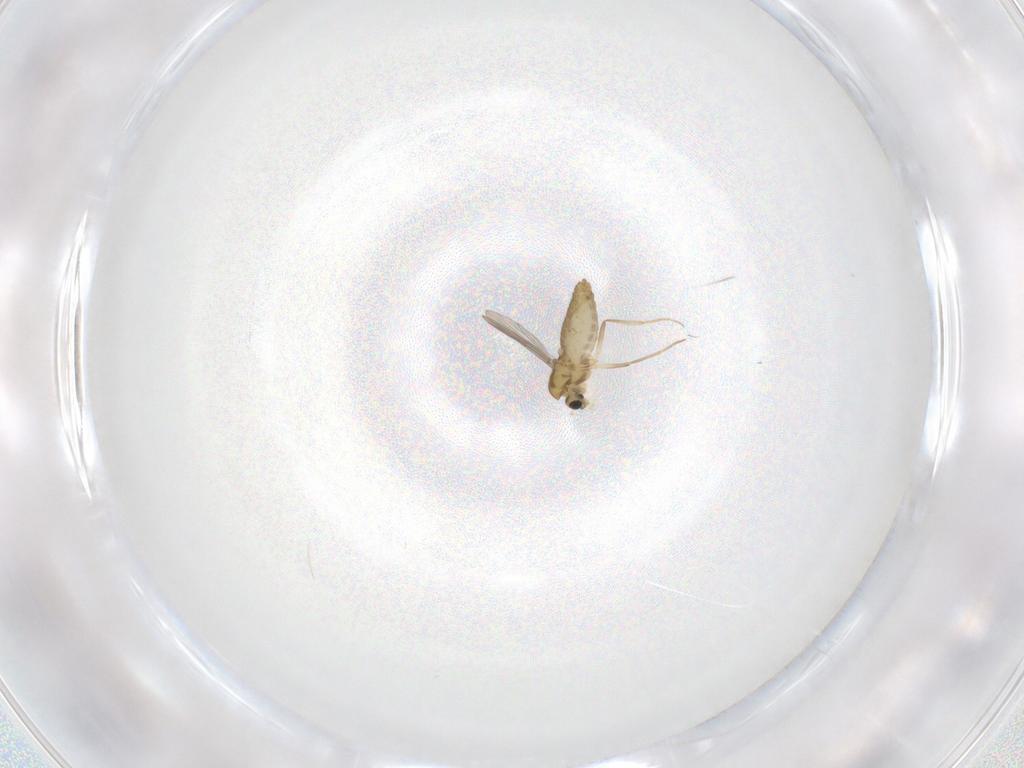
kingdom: Animalia
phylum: Arthropoda
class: Insecta
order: Diptera
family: Chironomidae
